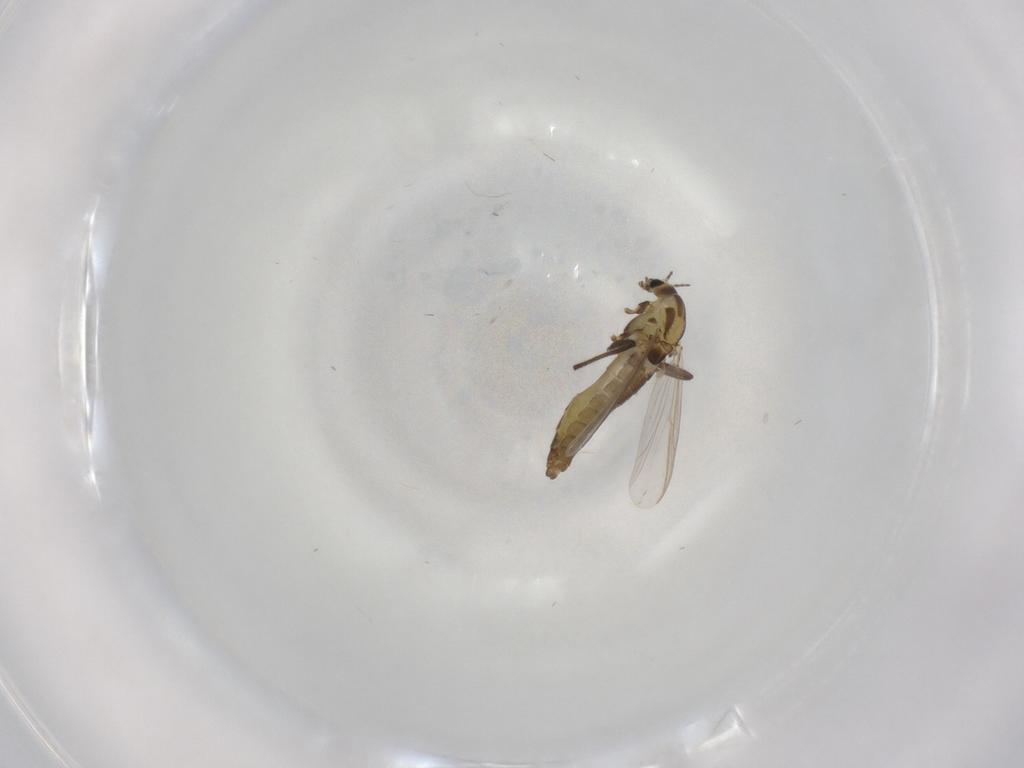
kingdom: Animalia
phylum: Arthropoda
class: Insecta
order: Diptera
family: Chironomidae
